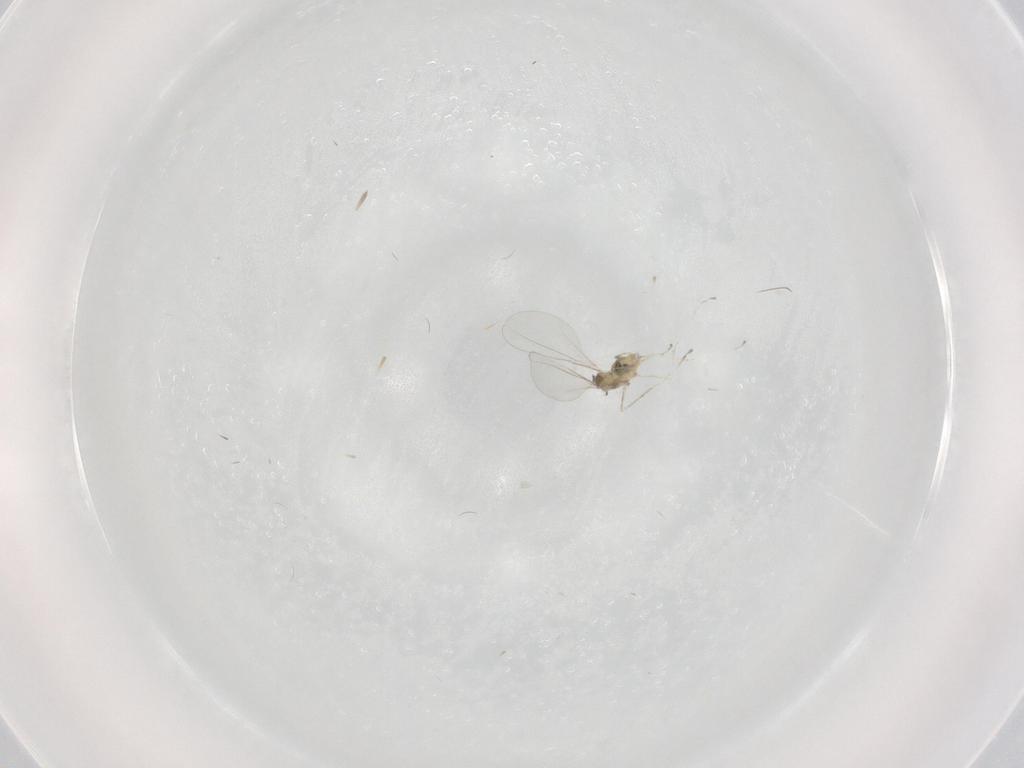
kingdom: Animalia
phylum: Arthropoda
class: Insecta
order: Diptera
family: Cecidomyiidae
